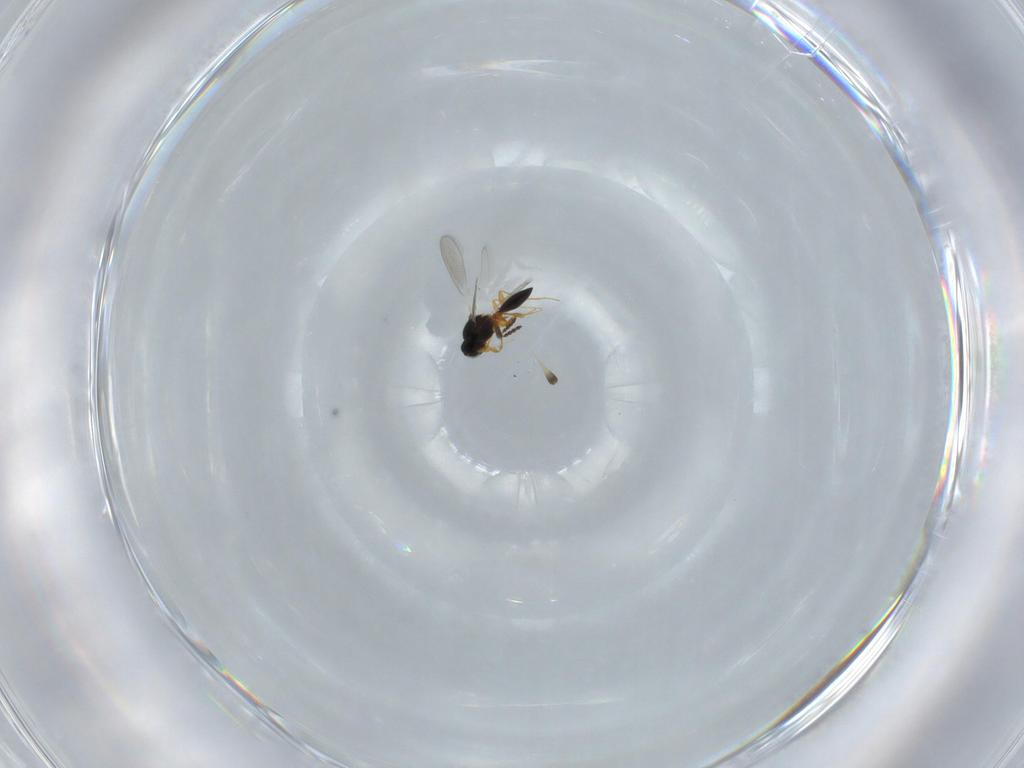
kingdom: Animalia
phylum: Arthropoda
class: Insecta
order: Hymenoptera
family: Platygastridae
